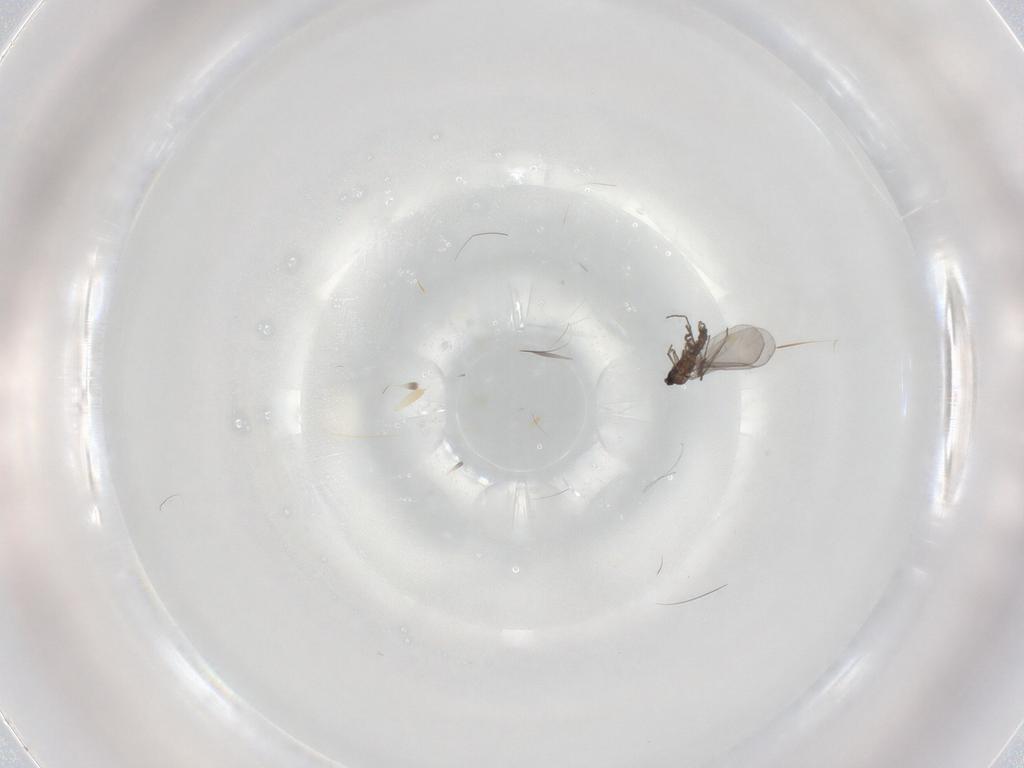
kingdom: Animalia
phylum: Arthropoda
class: Insecta
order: Diptera
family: Sciaridae
